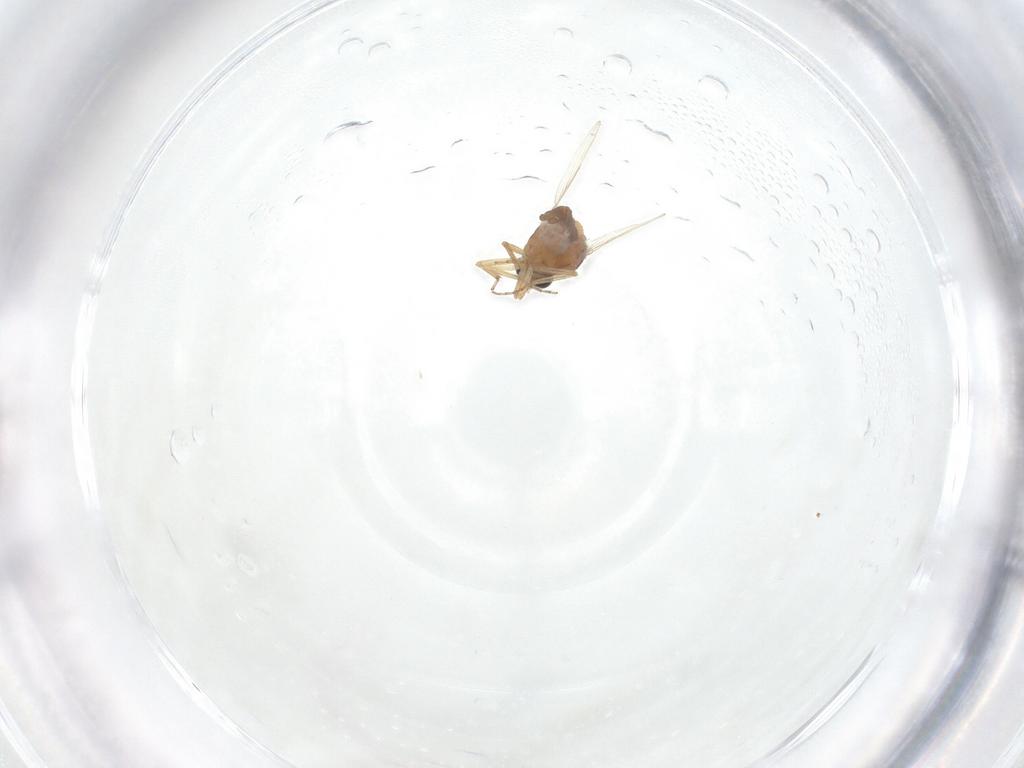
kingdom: Animalia
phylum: Arthropoda
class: Insecta
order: Diptera
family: Ceratopogonidae
